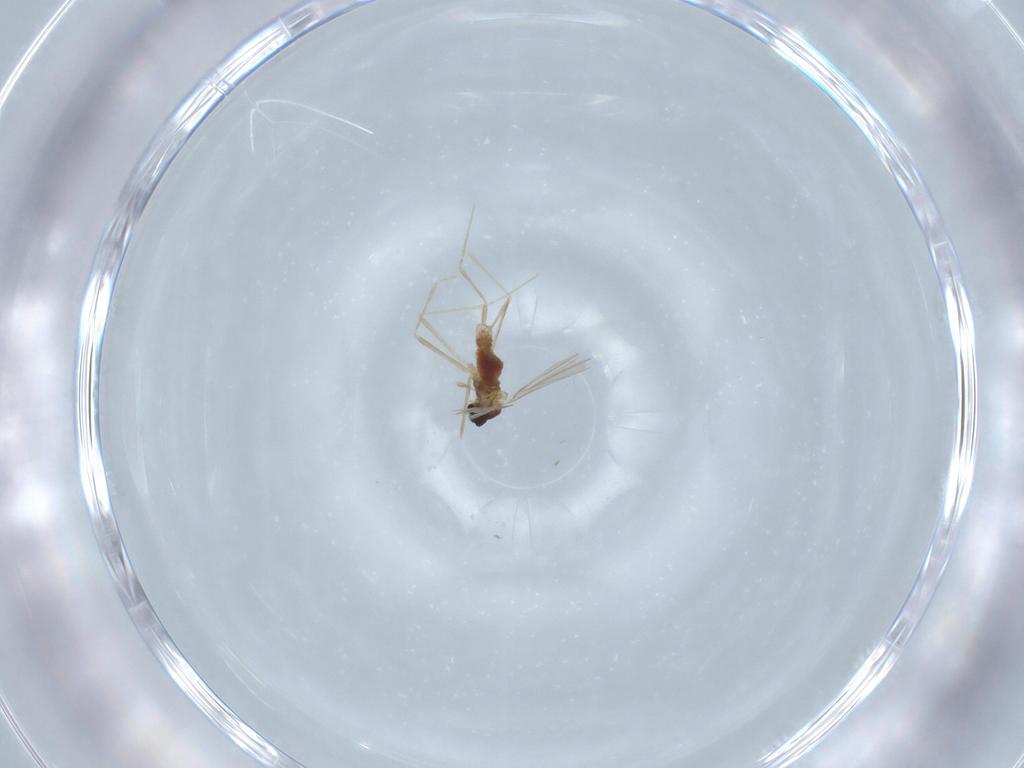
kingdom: Animalia
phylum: Arthropoda
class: Insecta
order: Diptera
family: Cecidomyiidae
